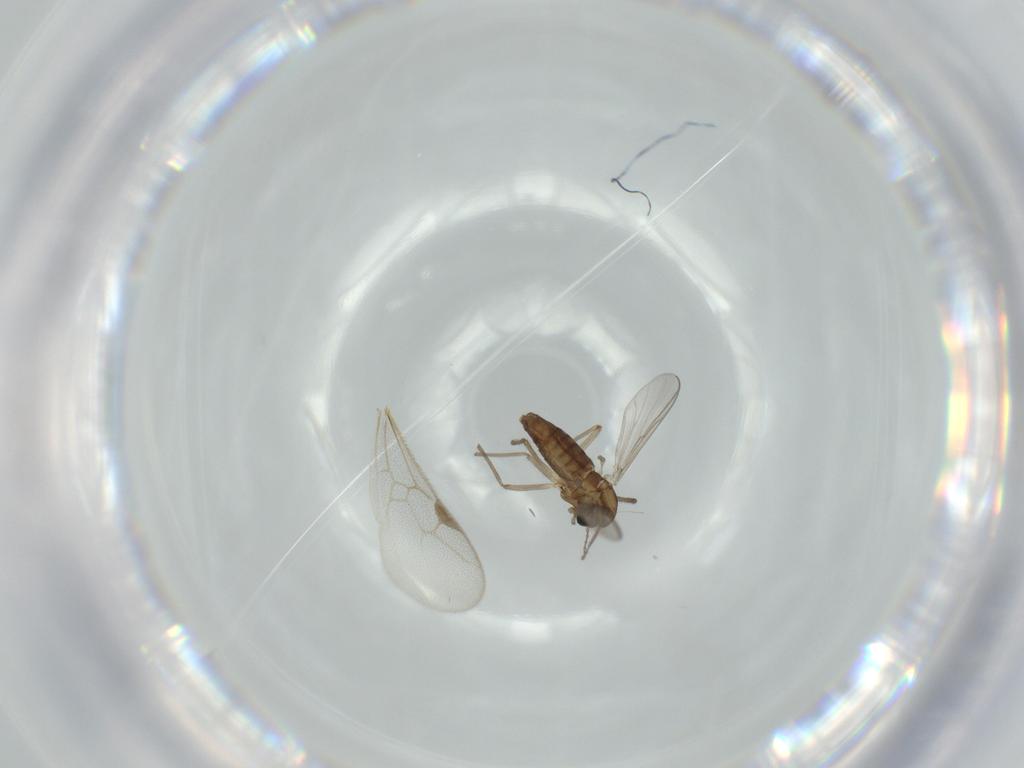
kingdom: Animalia
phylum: Arthropoda
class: Insecta
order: Diptera
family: Chironomidae
